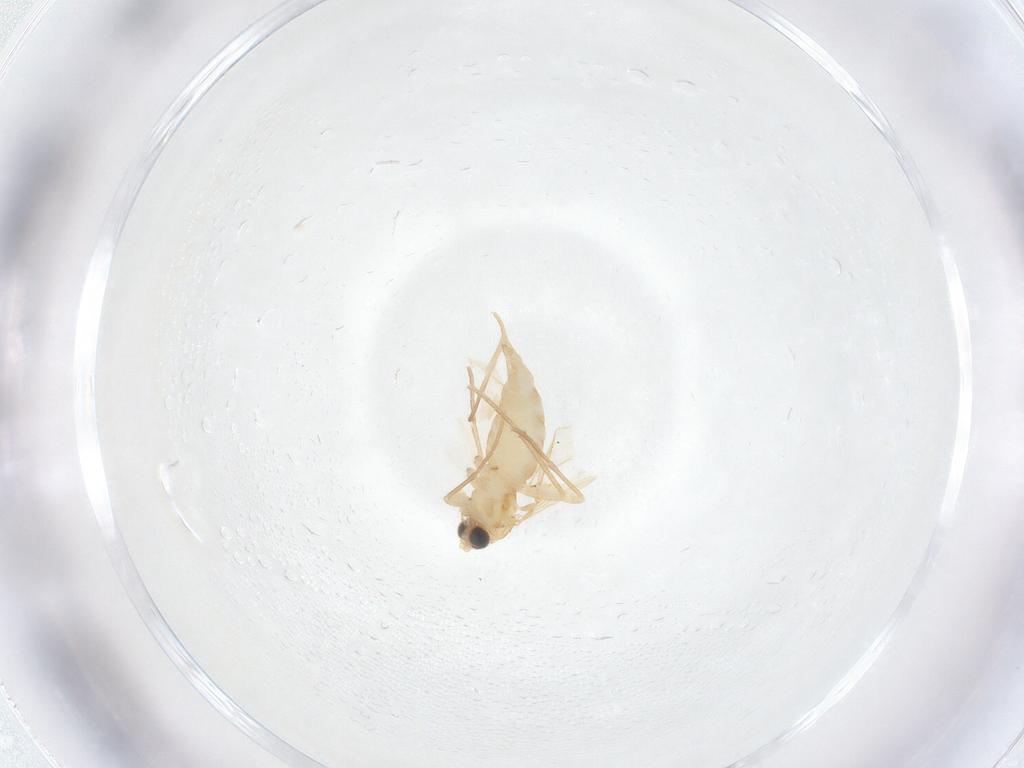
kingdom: Animalia
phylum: Arthropoda
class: Insecta
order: Diptera
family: Sciaridae
